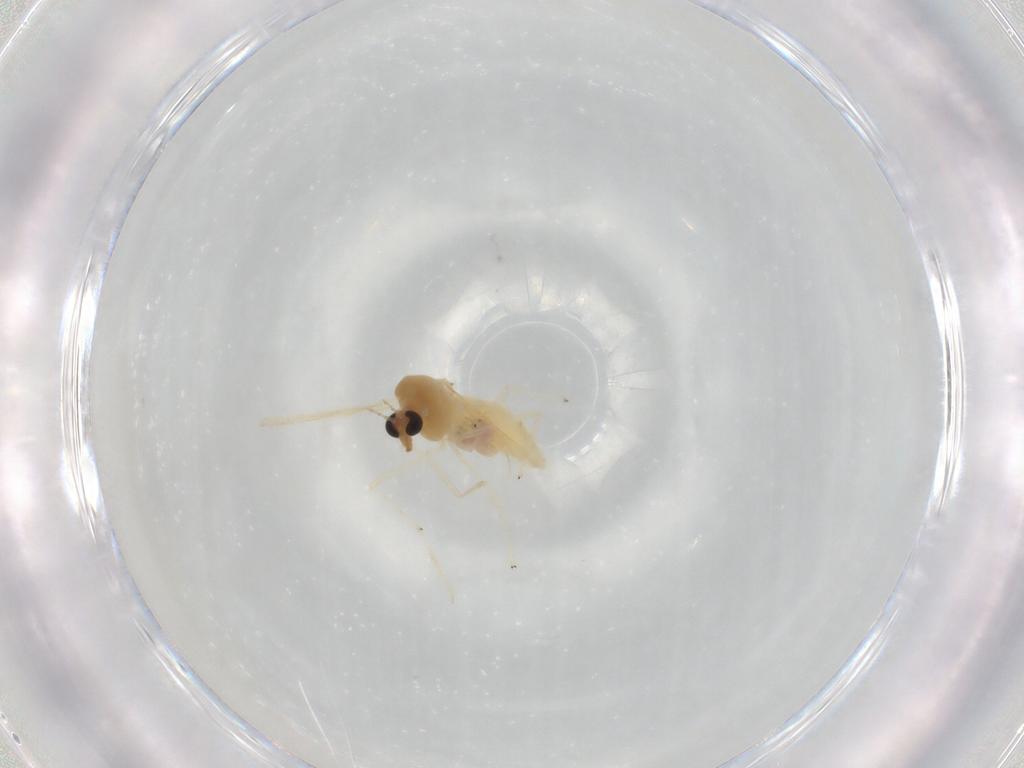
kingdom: Animalia
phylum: Arthropoda
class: Insecta
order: Diptera
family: Chironomidae
